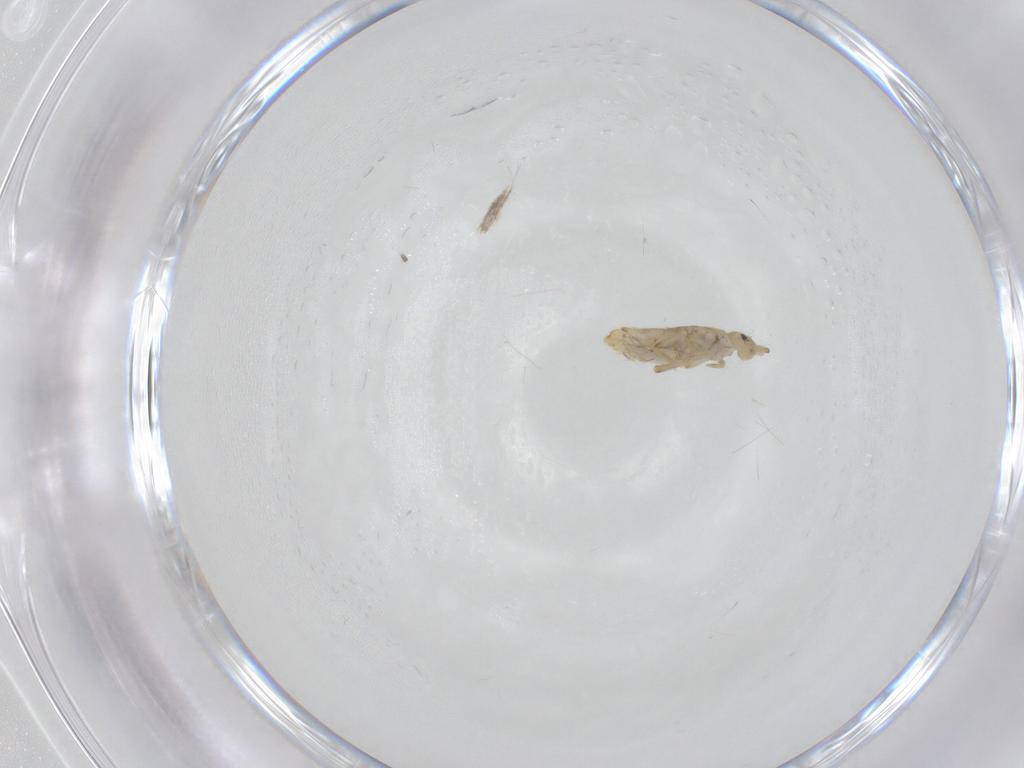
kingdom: Animalia
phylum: Arthropoda
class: Collembola
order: Entomobryomorpha
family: Entomobryidae
